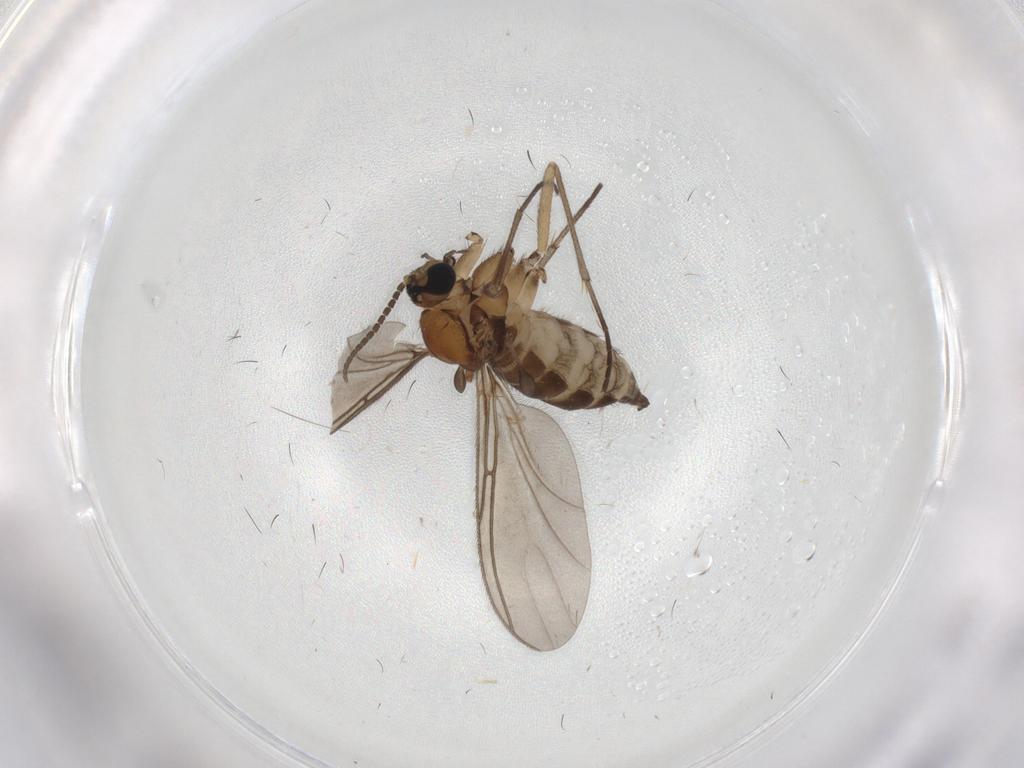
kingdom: Animalia
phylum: Arthropoda
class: Insecta
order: Diptera
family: Sciaridae
